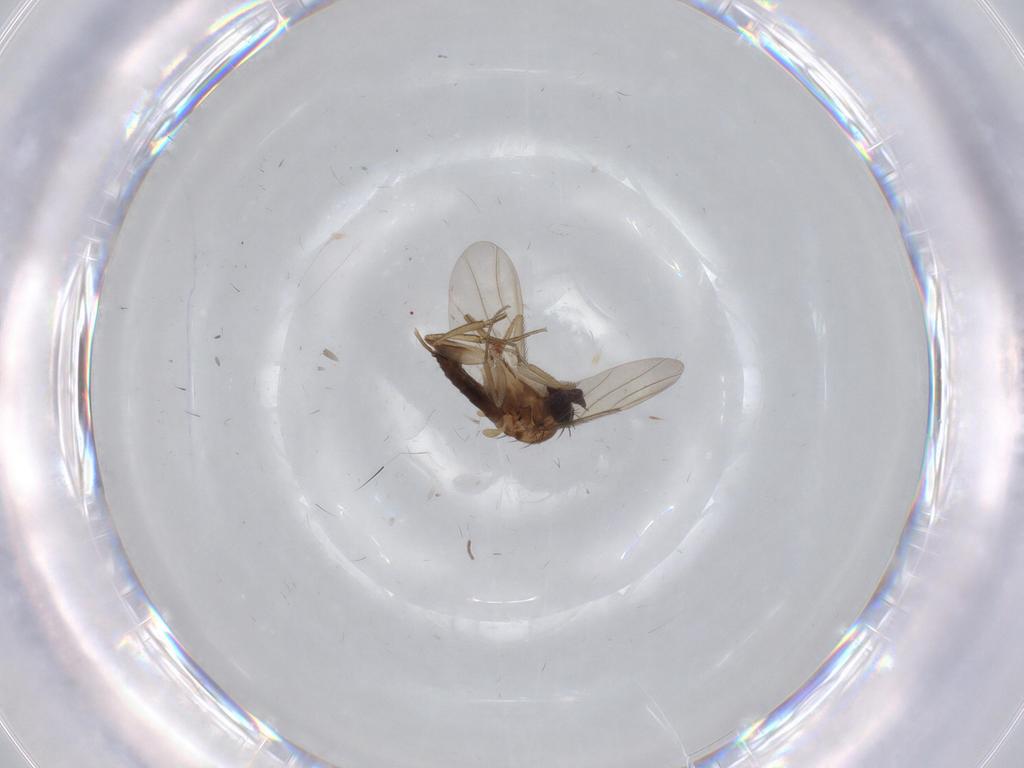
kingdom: Animalia
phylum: Arthropoda
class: Insecta
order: Diptera
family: Phoridae
